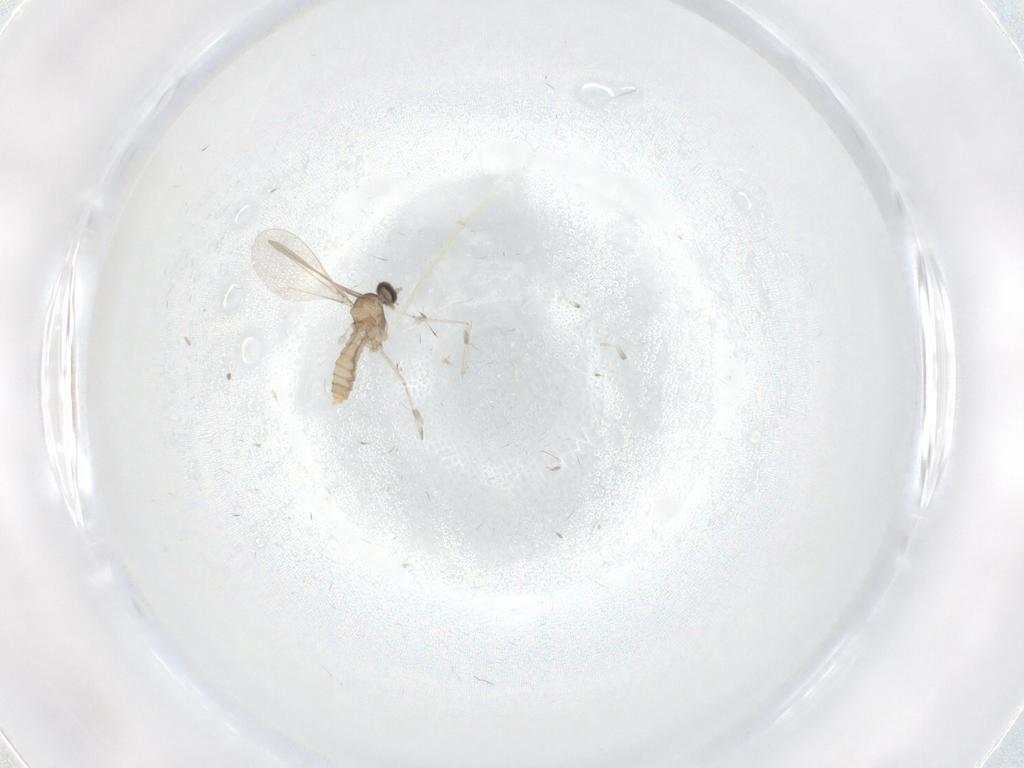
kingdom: Animalia
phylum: Arthropoda
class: Insecta
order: Diptera
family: Cecidomyiidae
